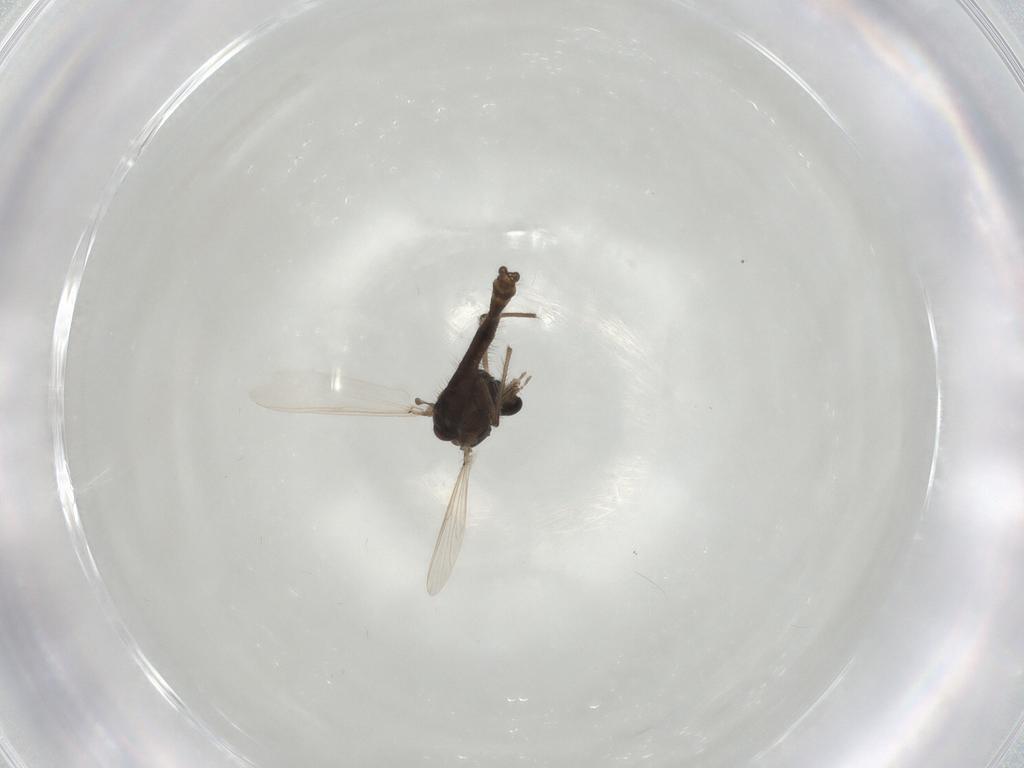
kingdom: Animalia
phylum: Arthropoda
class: Insecta
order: Diptera
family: Chironomidae
